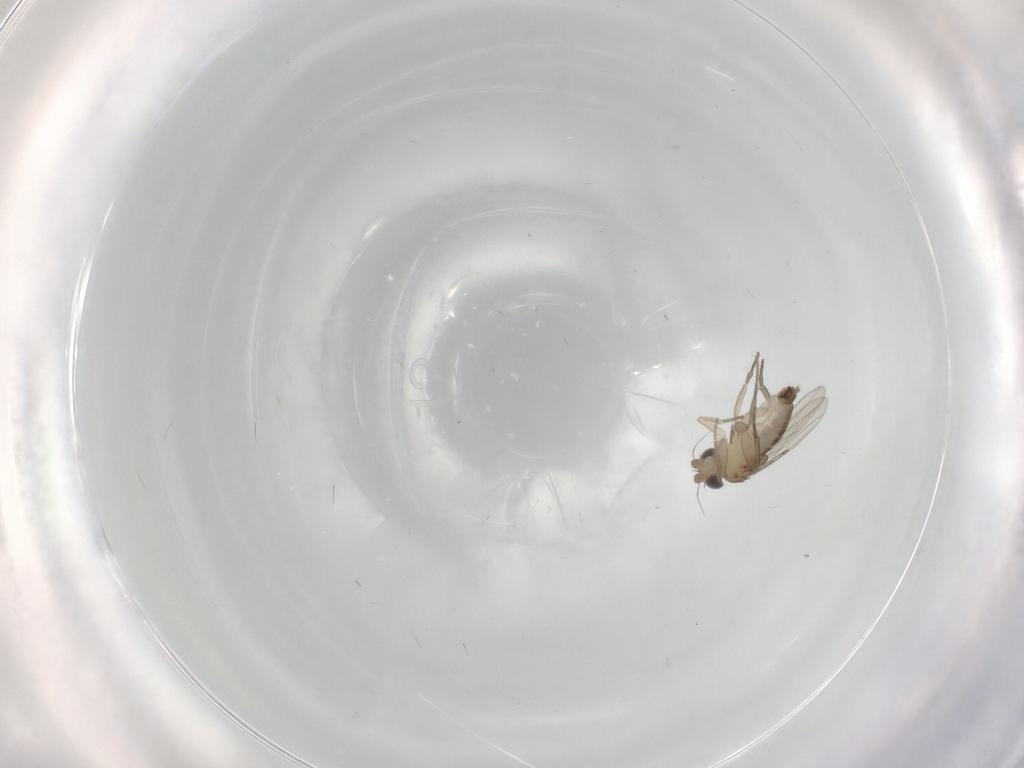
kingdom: Animalia
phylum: Arthropoda
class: Insecta
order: Diptera
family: Phoridae
